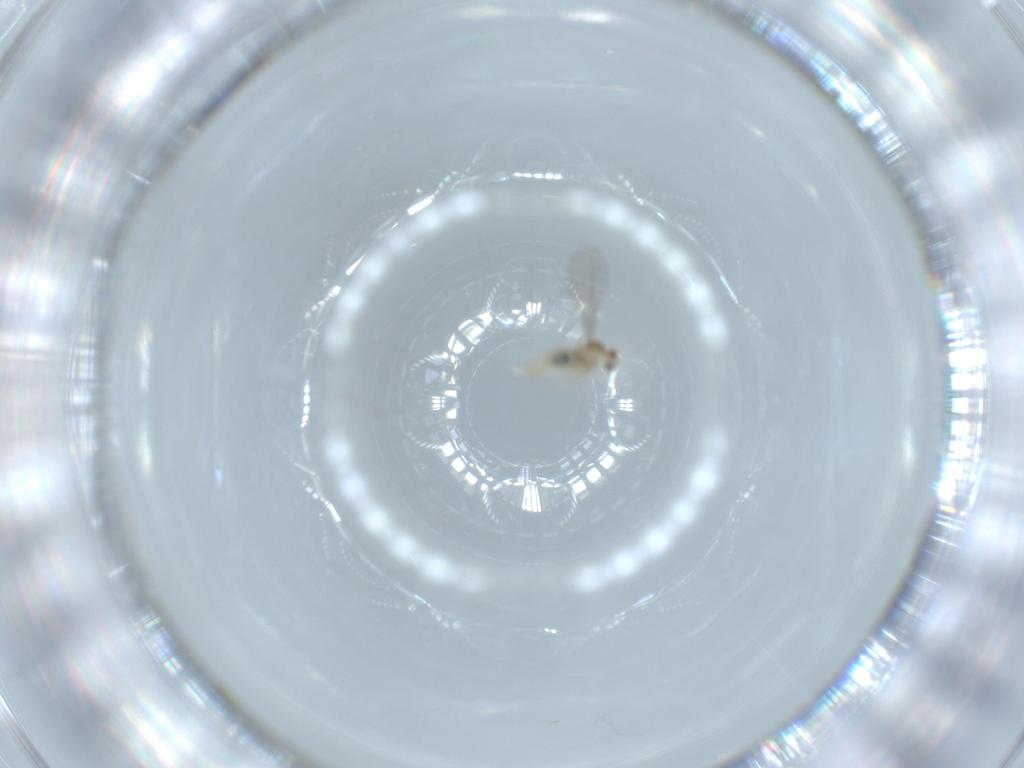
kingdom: Animalia
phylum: Arthropoda
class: Insecta
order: Diptera
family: Cecidomyiidae
